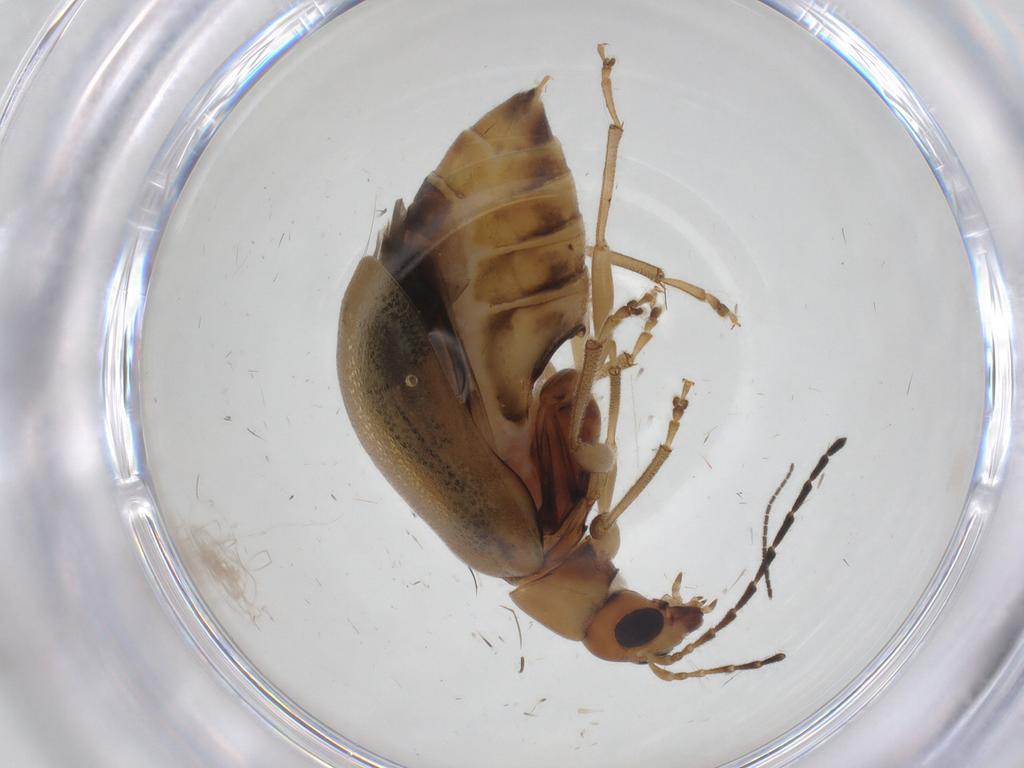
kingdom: Animalia
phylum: Arthropoda
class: Insecta
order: Coleoptera
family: Chrysomelidae
